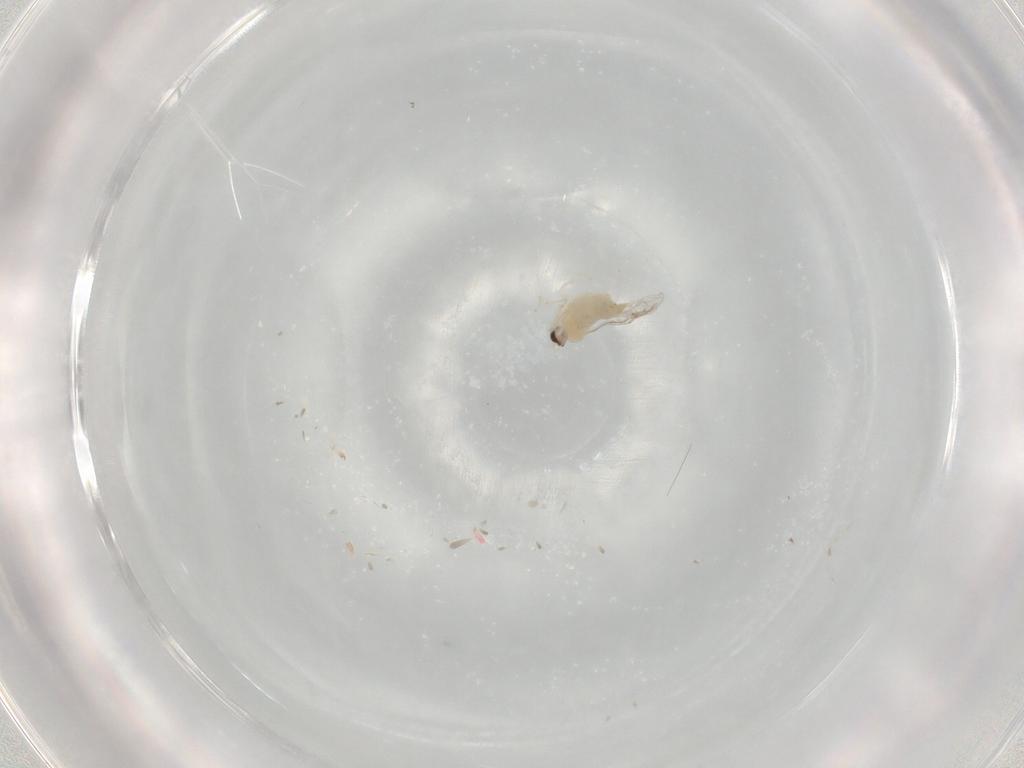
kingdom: Animalia
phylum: Arthropoda
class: Insecta
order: Diptera
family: Cecidomyiidae
